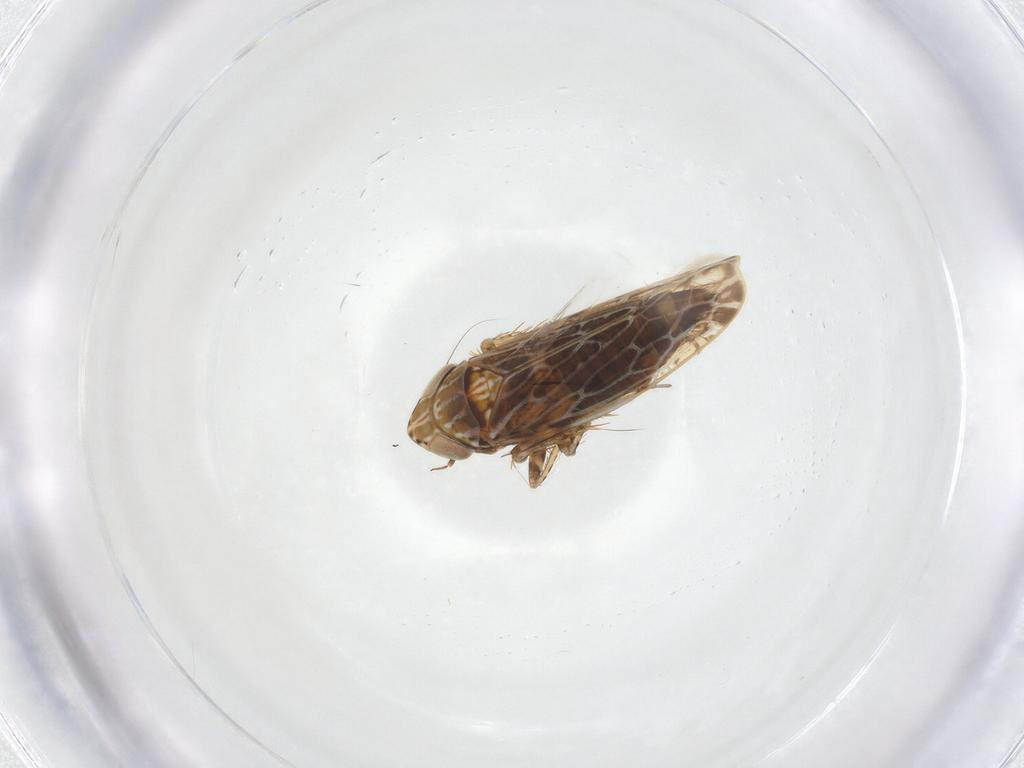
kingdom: Animalia
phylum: Arthropoda
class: Insecta
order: Hemiptera
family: Cicadellidae
